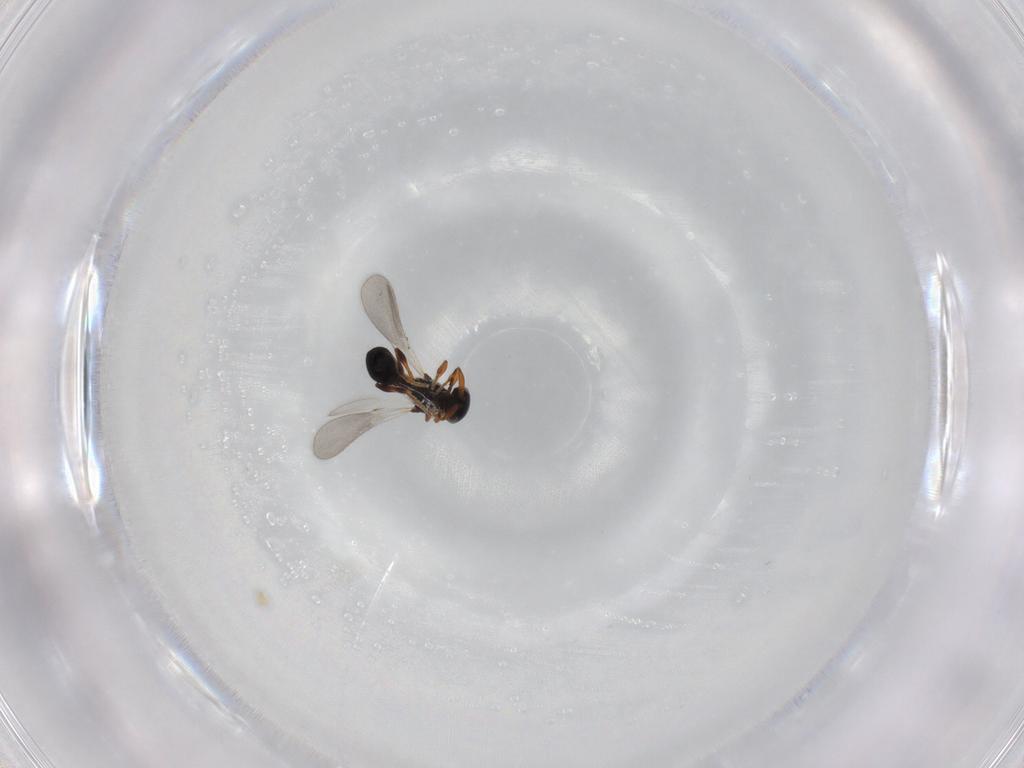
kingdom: Animalia
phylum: Arthropoda
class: Insecta
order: Hymenoptera
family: Platygastridae
